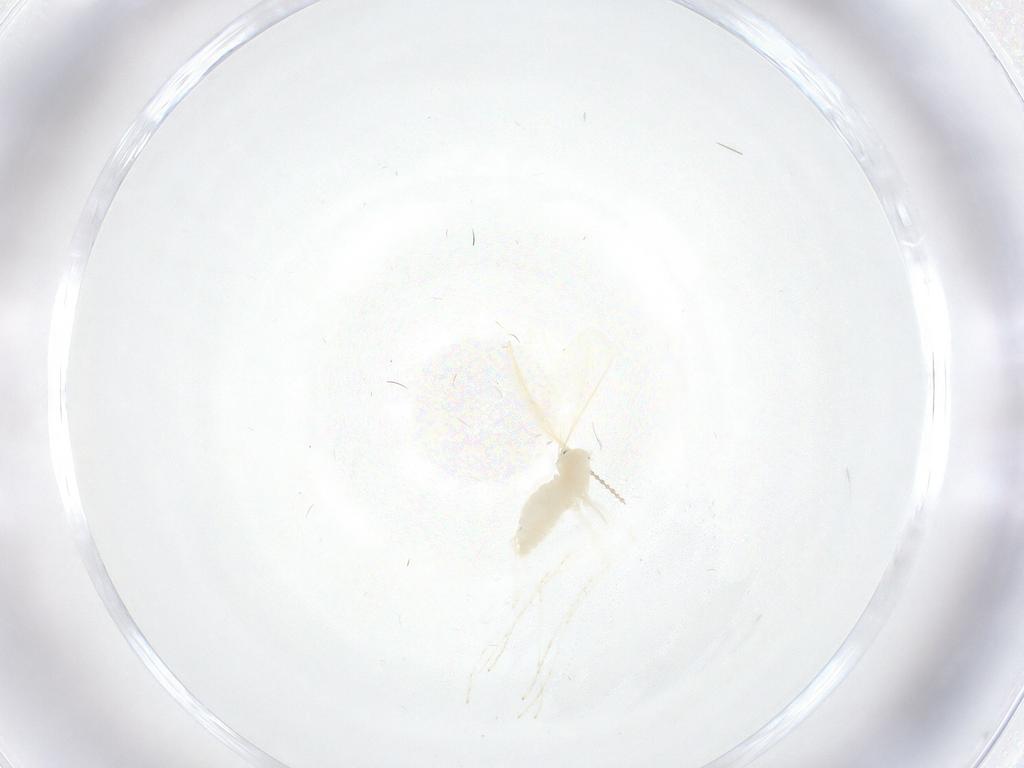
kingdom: Animalia
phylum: Arthropoda
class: Insecta
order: Diptera
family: Cecidomyiidae
